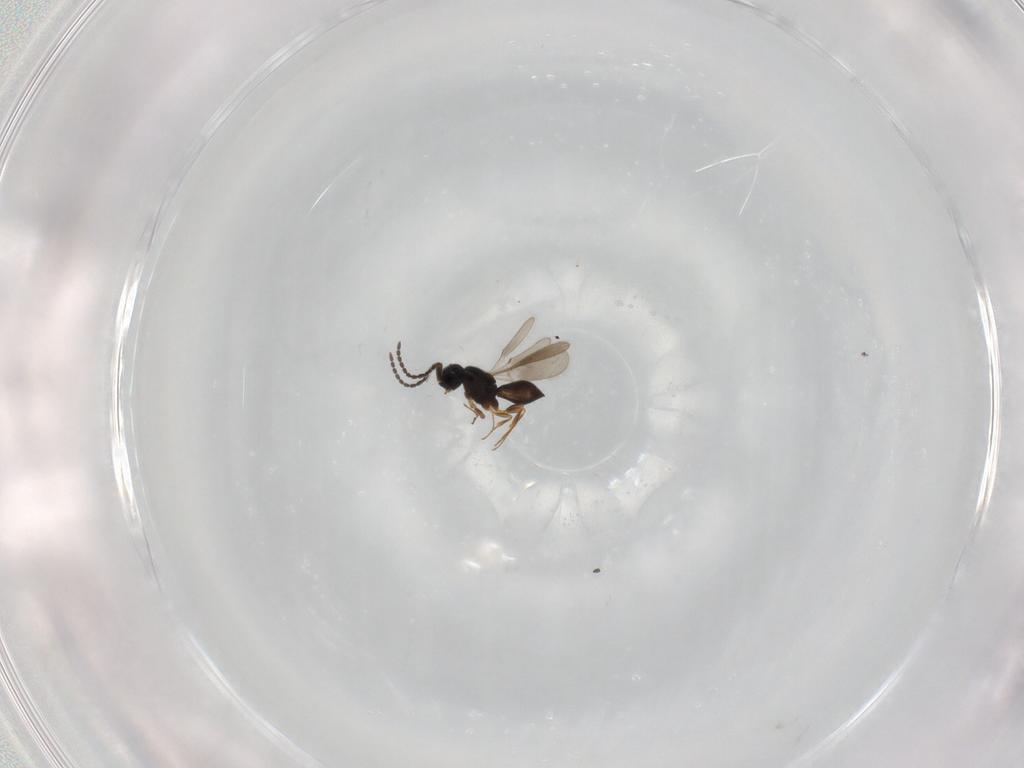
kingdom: Animalia
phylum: Arthropoda
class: Insecta
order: Hymenoptera
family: Scelionidae
